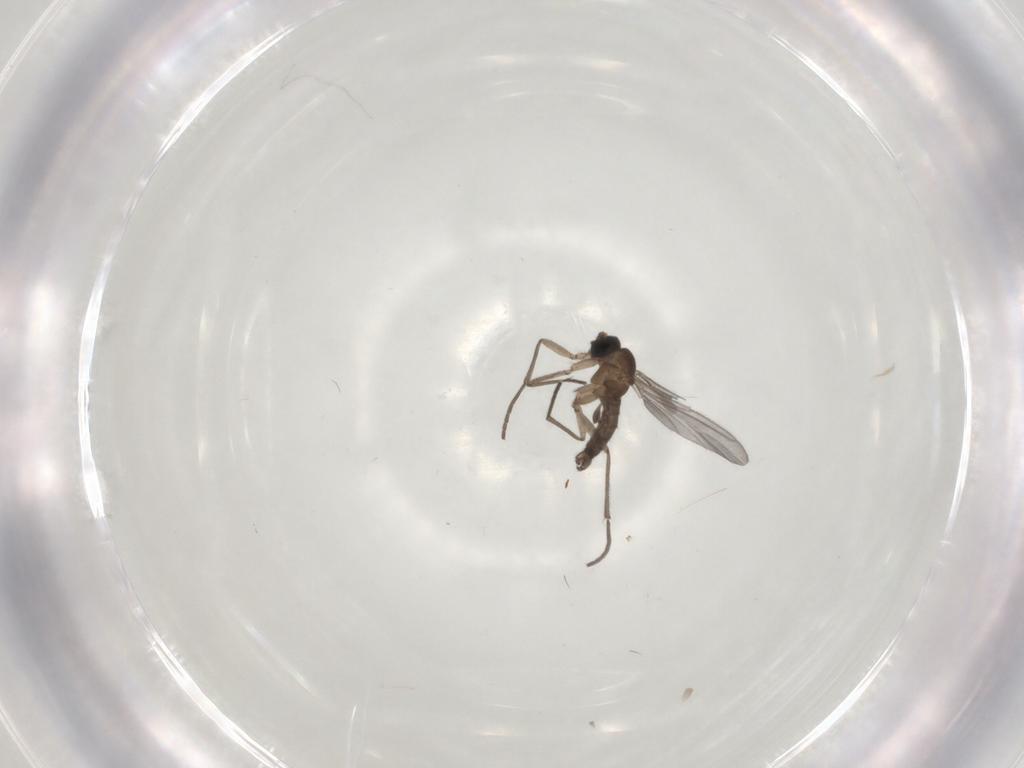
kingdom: Animalia
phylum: Arthropoda
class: Insecta
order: Diptera
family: Sciaridae
